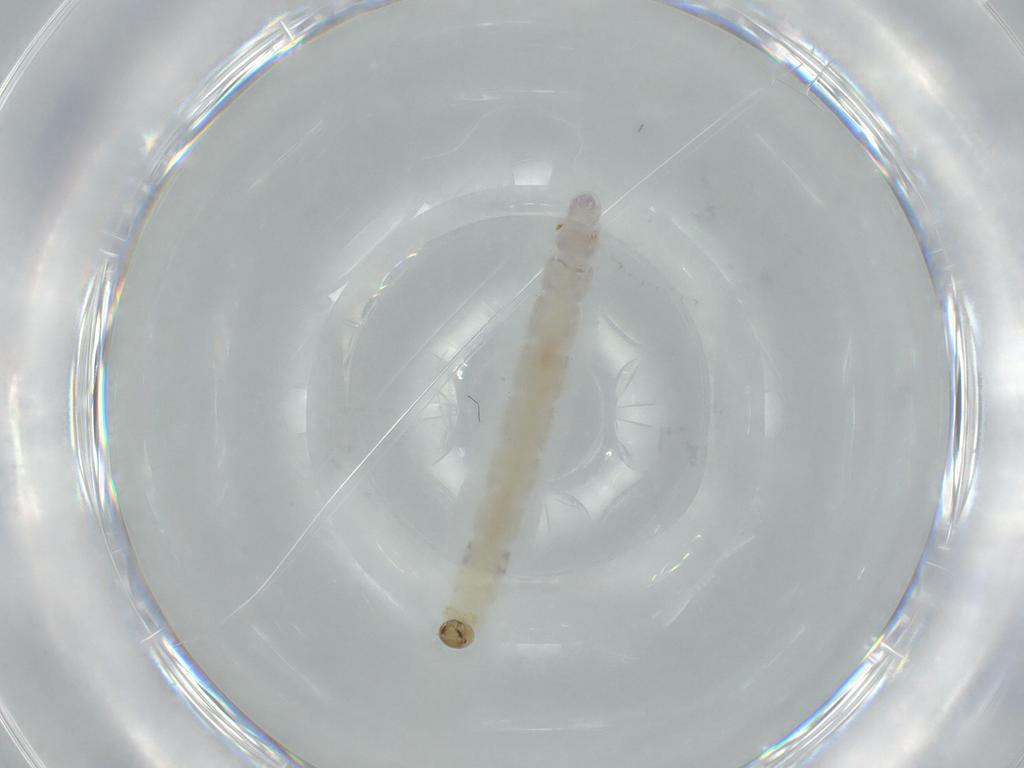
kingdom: Animalia
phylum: Arthropoda
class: Insecta
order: Diptera
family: Chironomidae
